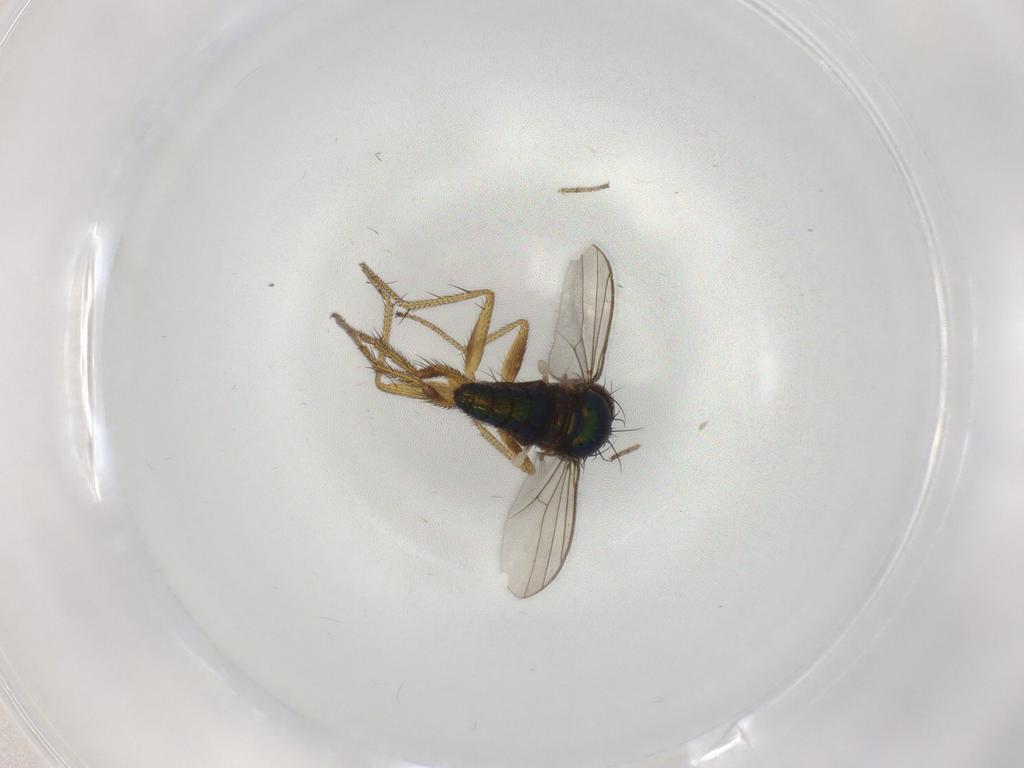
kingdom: Animalia
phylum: Arthropoda
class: Insecta
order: Diptera
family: Dolichopodidae
